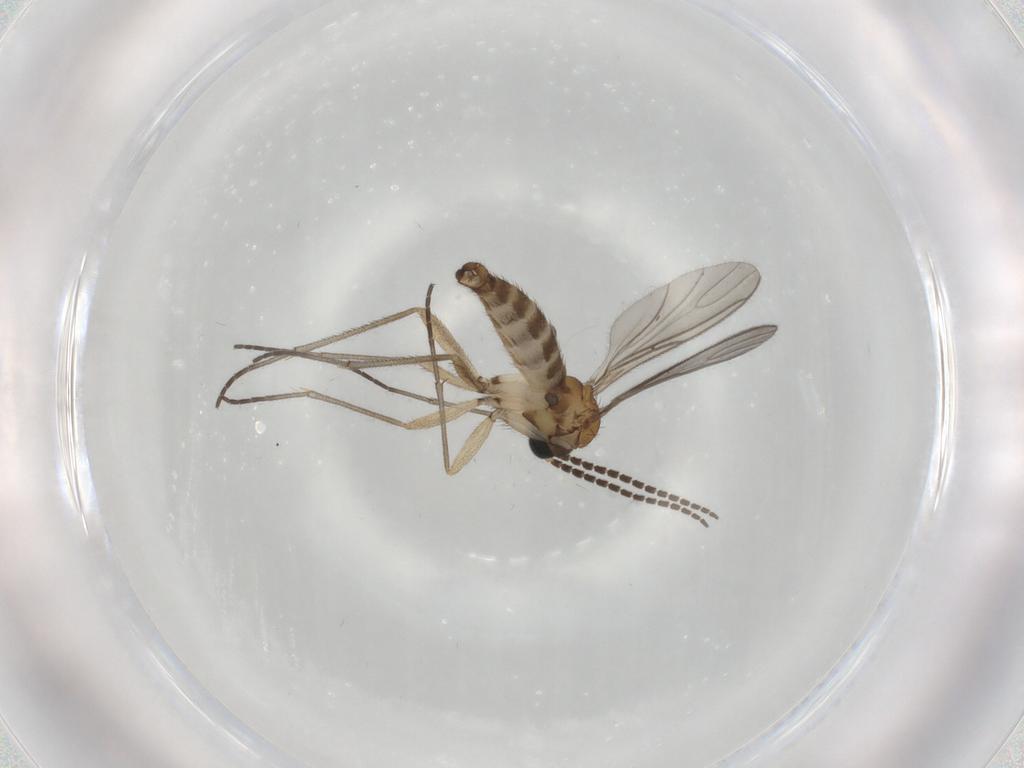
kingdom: Animalia
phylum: Arthropoda
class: Insecta
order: Diptera
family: Sciaridae
